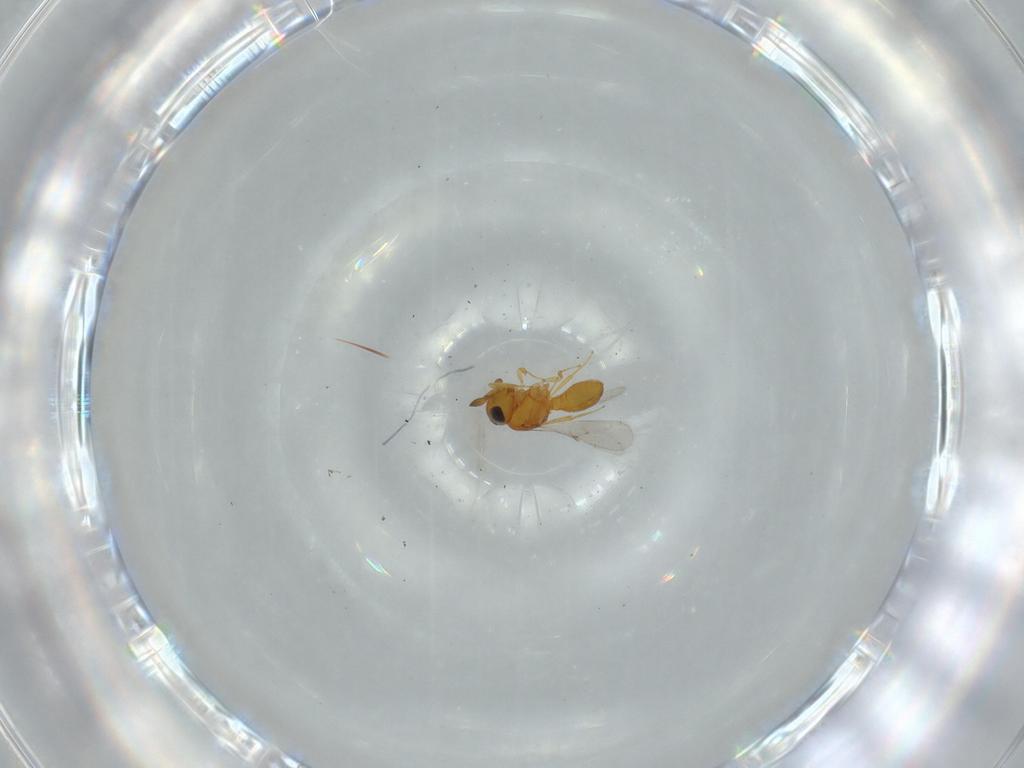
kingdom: Animalia
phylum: Arthropoda
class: Insecta
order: Hymenoptera
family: Scelionidae
